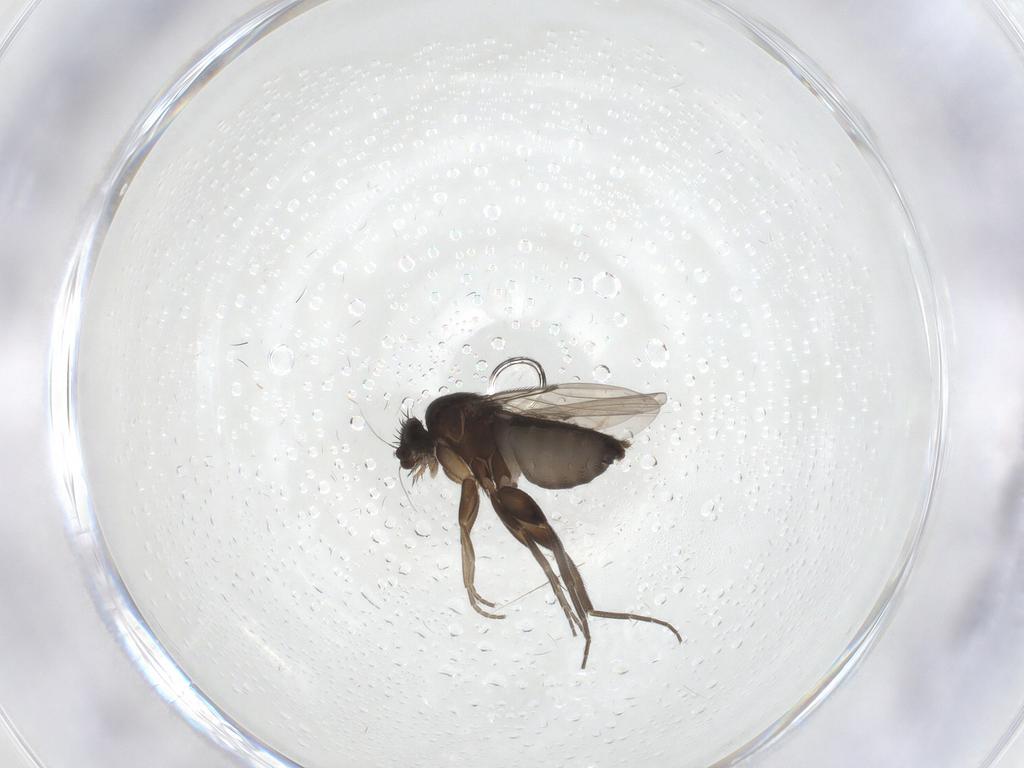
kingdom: Animalia
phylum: Arthropoda
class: Insecta
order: Diptera
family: Phoridae
